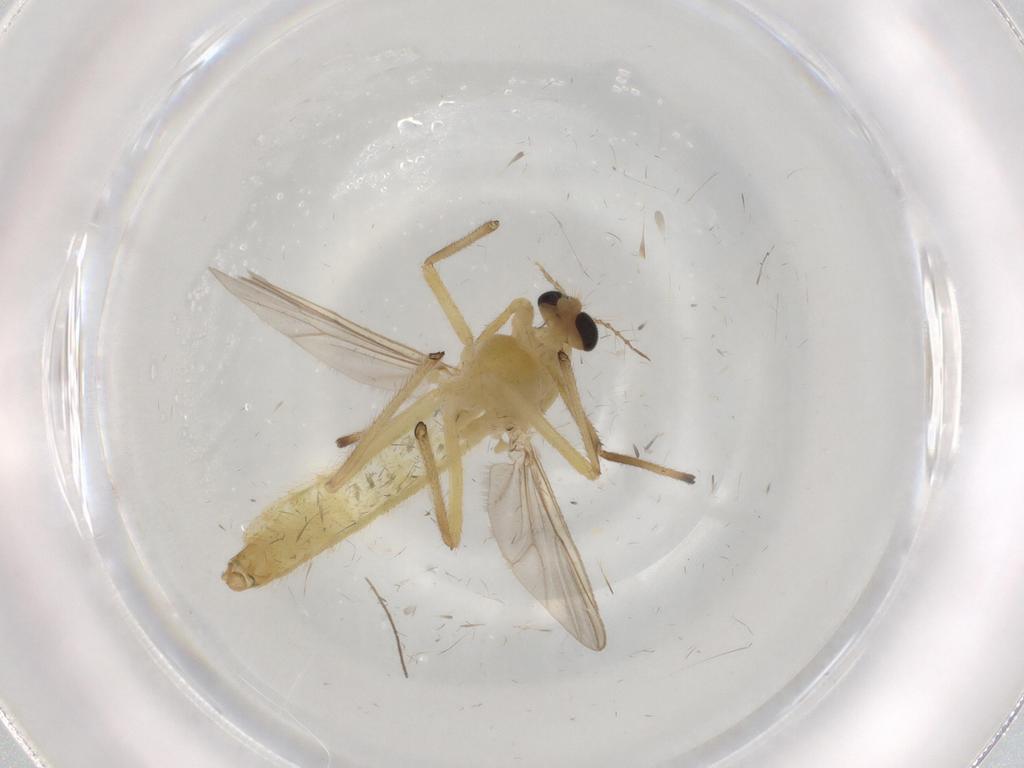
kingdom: Animalia
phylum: Arthropoda
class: Insecta
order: Diptera
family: Chironomidae
